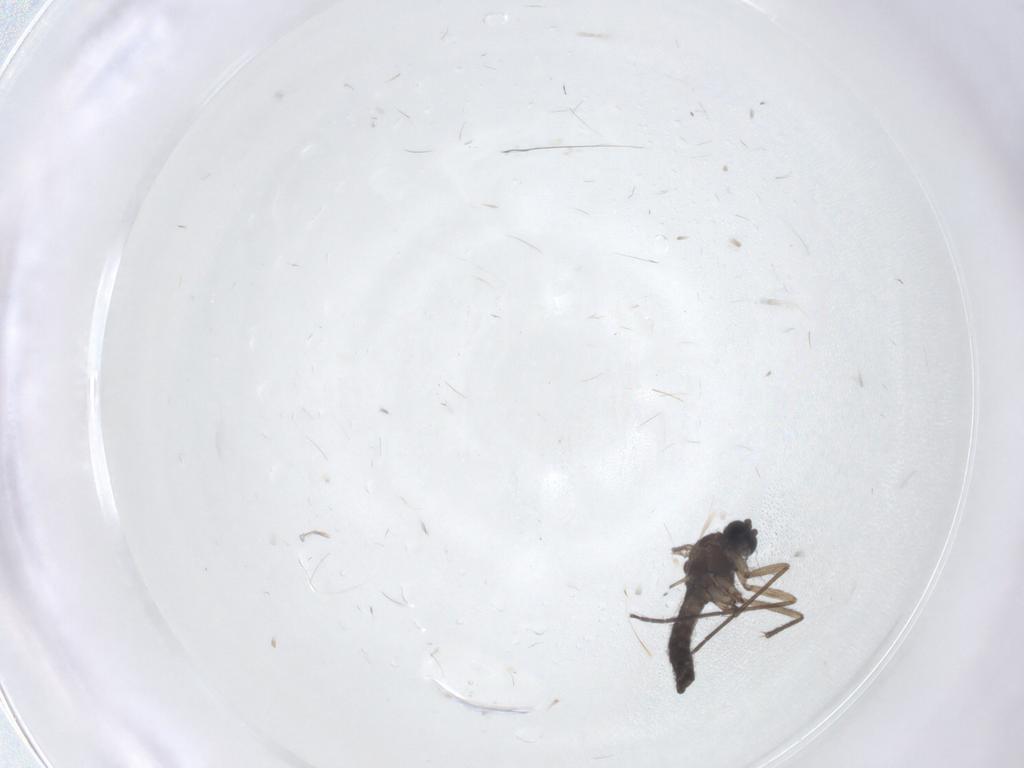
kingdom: Animalia
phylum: Arthropoda
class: Insecta
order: Diptera
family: Sciaridae
